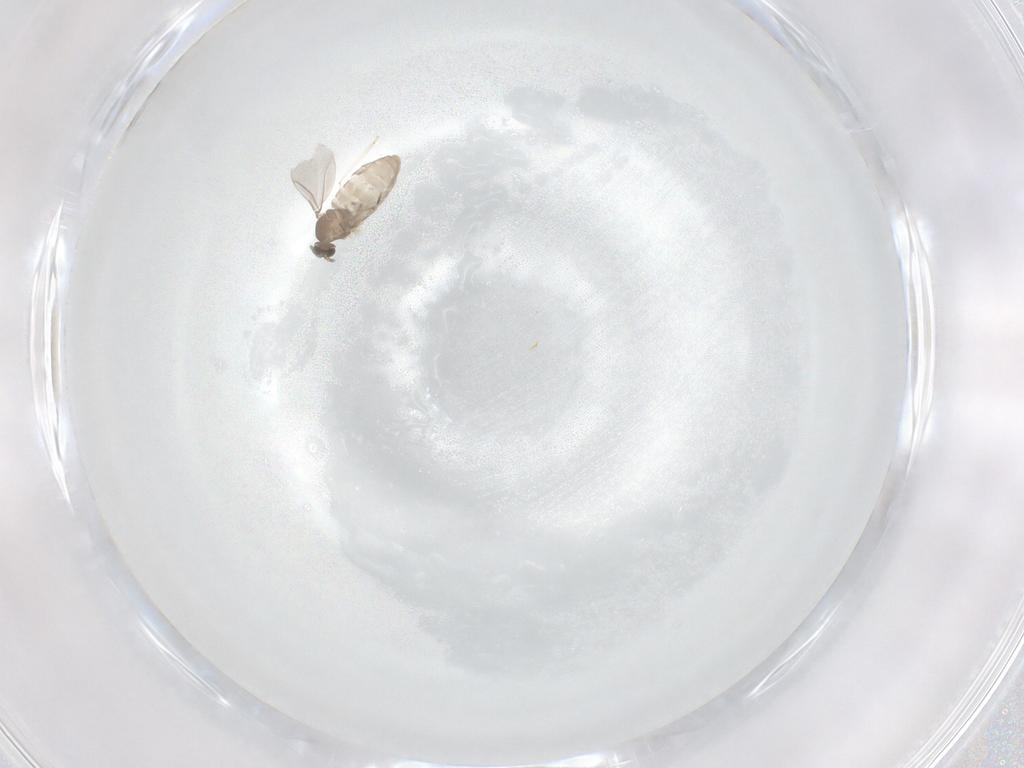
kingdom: Animalia
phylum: Arthropoda
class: Insecta
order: Diptera
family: Cecidomyiidae
